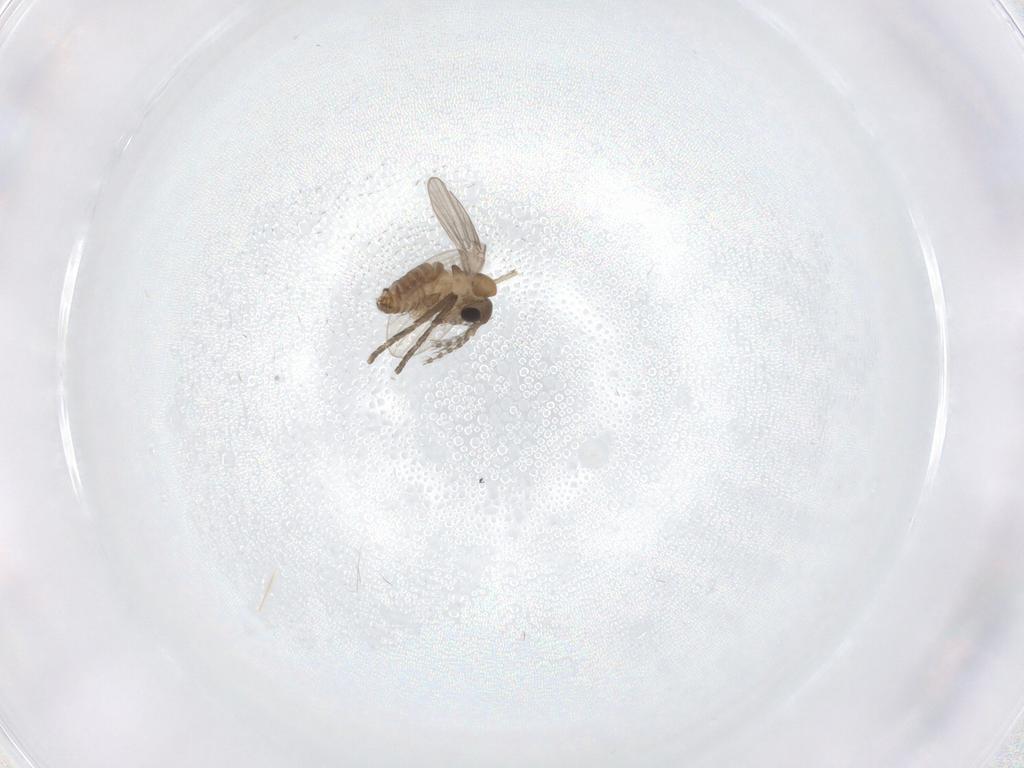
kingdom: Animalia
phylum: Arthropoda
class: Insecta
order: Diptera
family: Psychodidae
